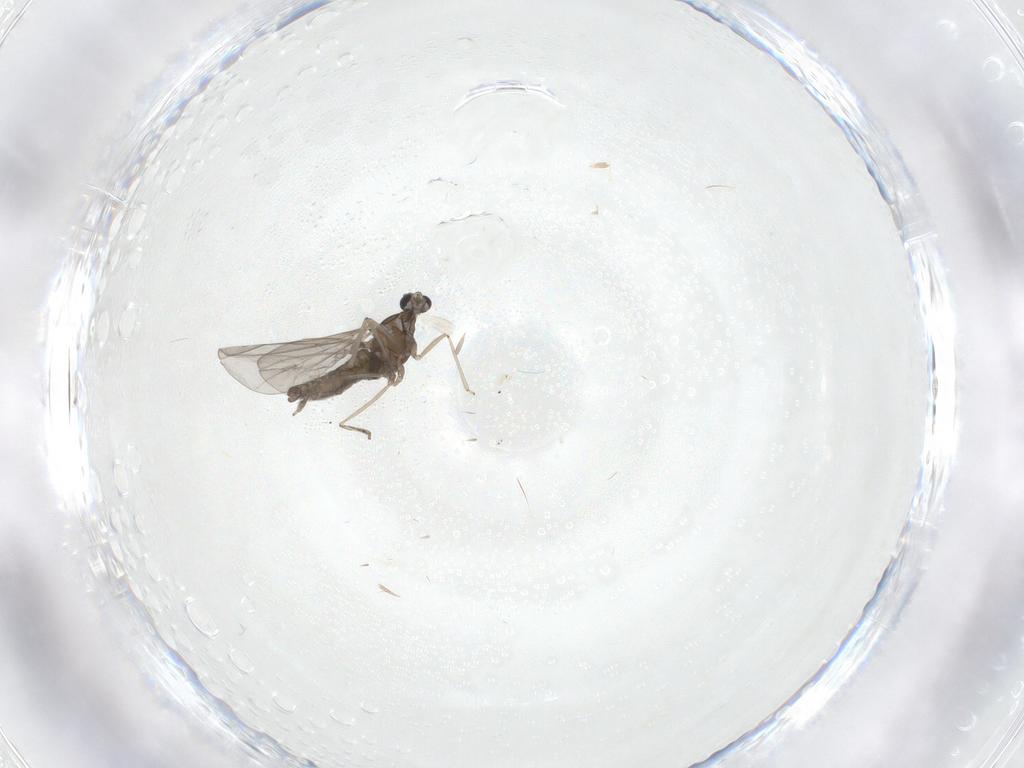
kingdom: Animalia
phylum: Arthropoda
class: Insecta
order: Diptera
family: Cecidomyiidae
